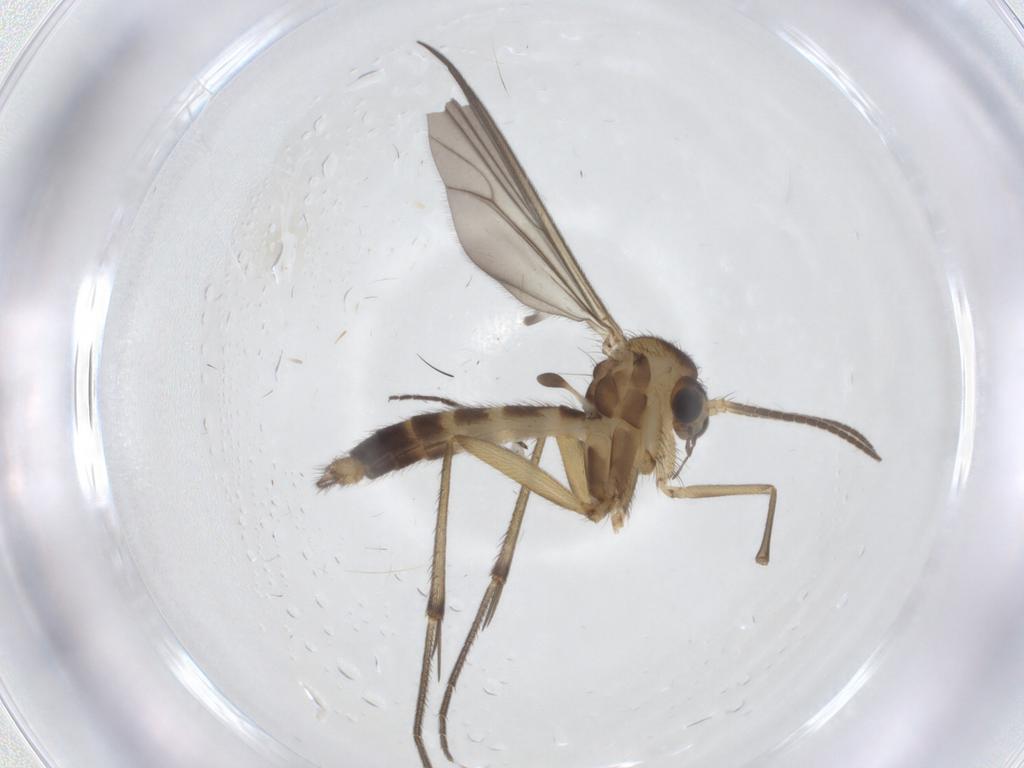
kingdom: Animalia
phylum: Arthropoda
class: Insecta
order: Diptera
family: Mycetophilidae
